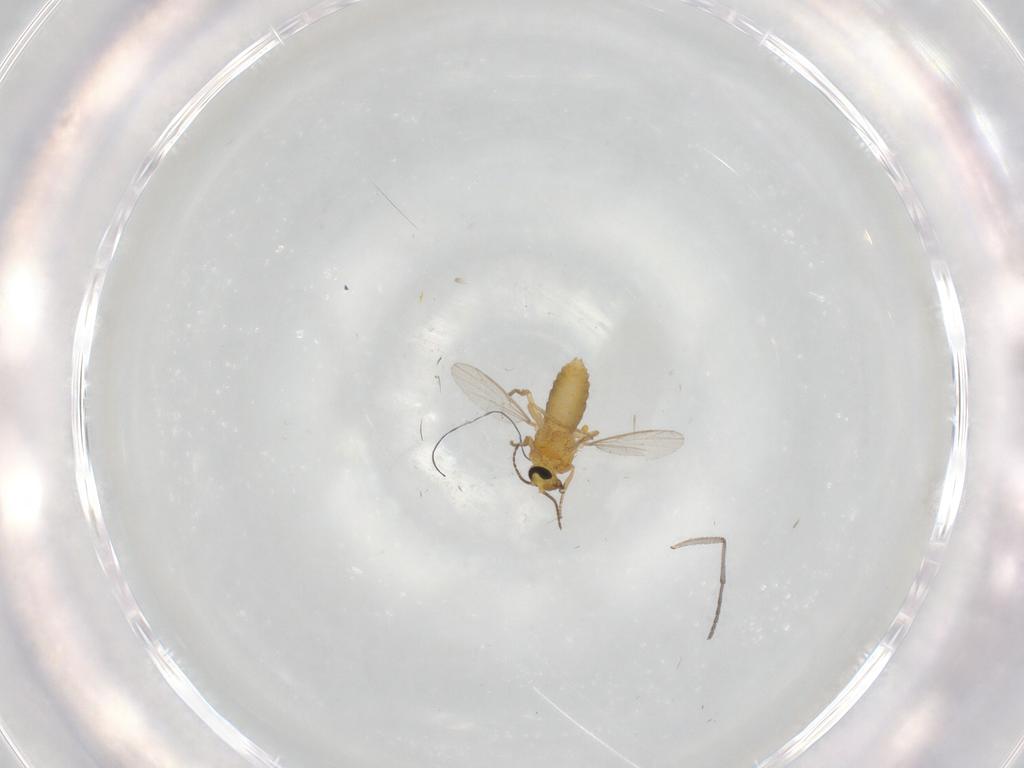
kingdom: Animalia
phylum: Arthropoda
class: Insecta
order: Diptera
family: Sciaridae
